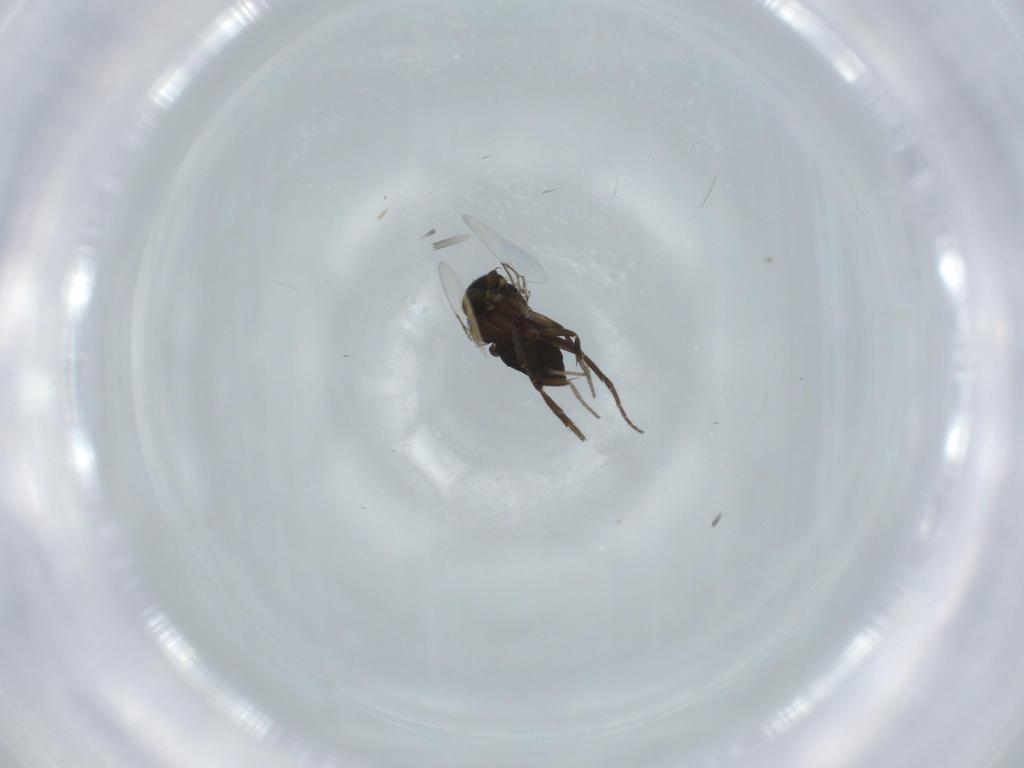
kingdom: Animalia
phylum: Arthropoda
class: Insecta
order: Diptera
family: Phoridae
